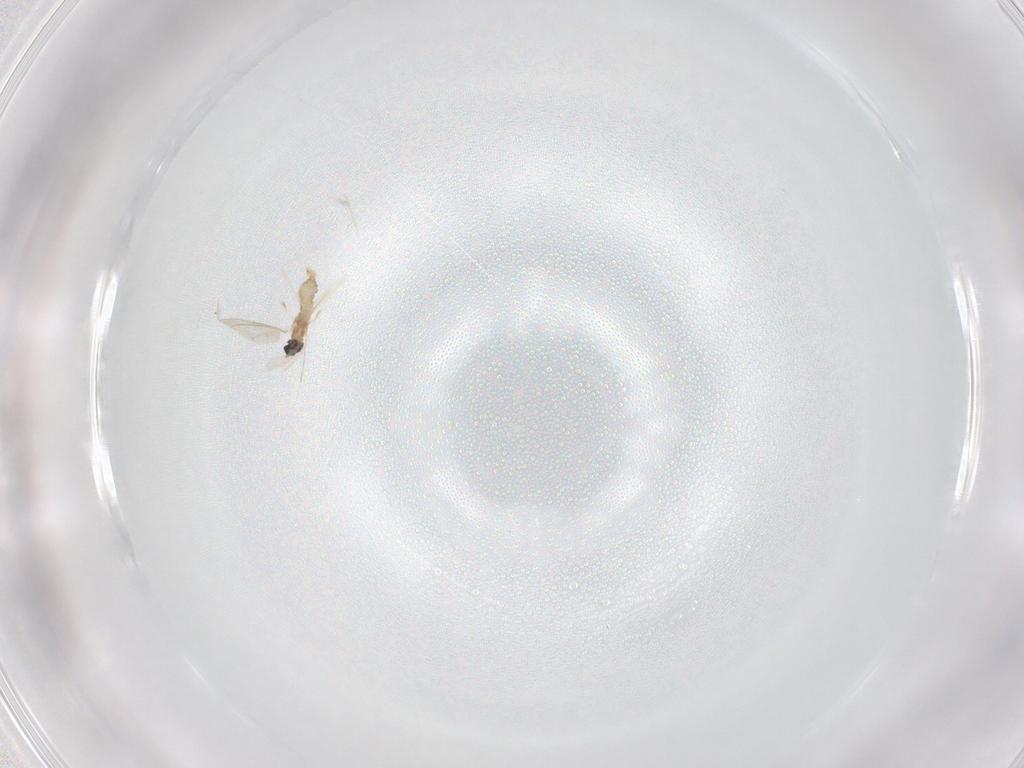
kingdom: Animalia
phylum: Arthropoda
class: Insecta
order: Diptera
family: Cecidomyiidae
